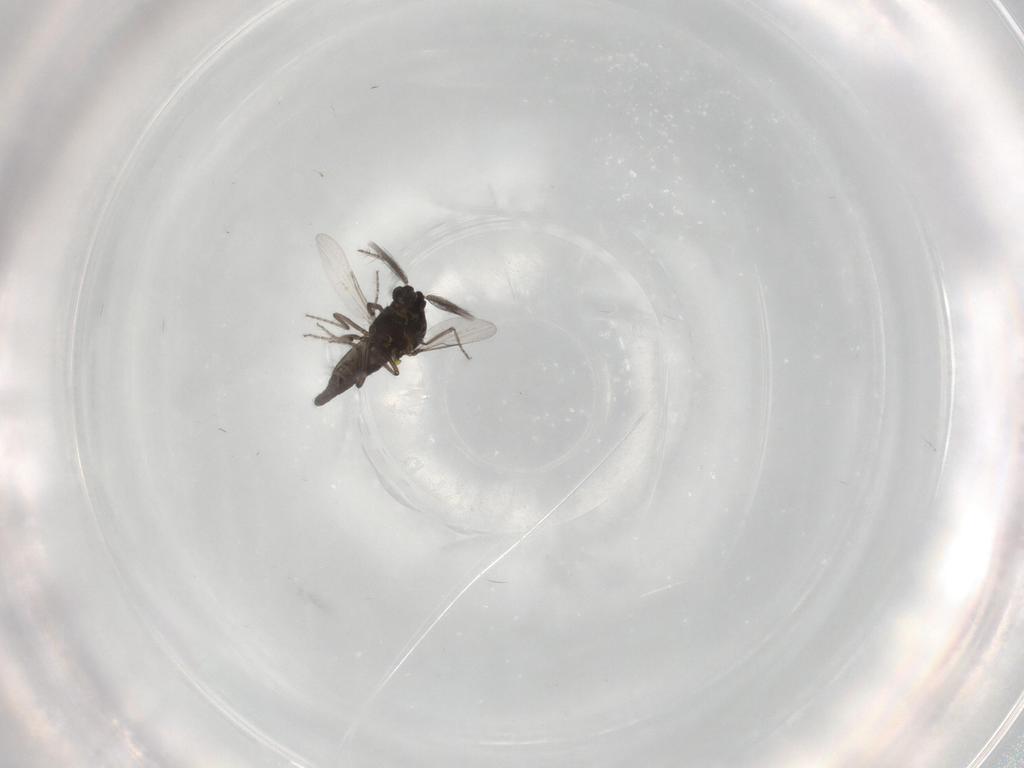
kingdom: Animalia
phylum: Arthropoda
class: Insecta
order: Diptera
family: Ceratopogonidae
